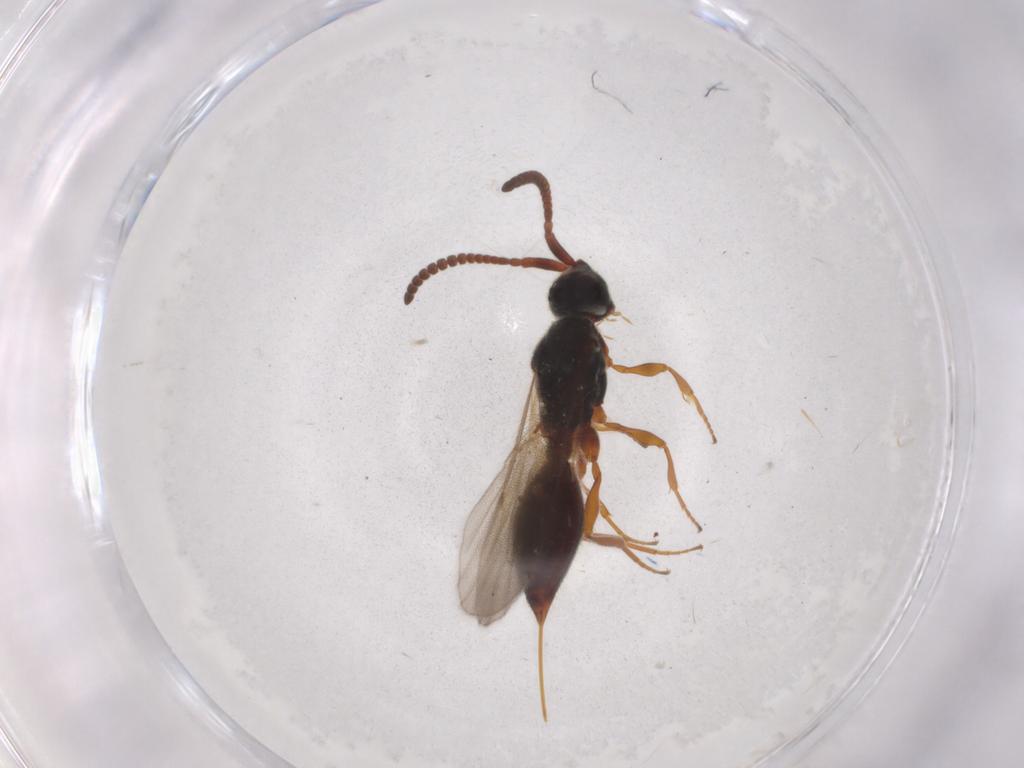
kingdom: Animalia
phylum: Arthropoda
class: Insecta
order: Hymenoptera
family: Diapriidae
